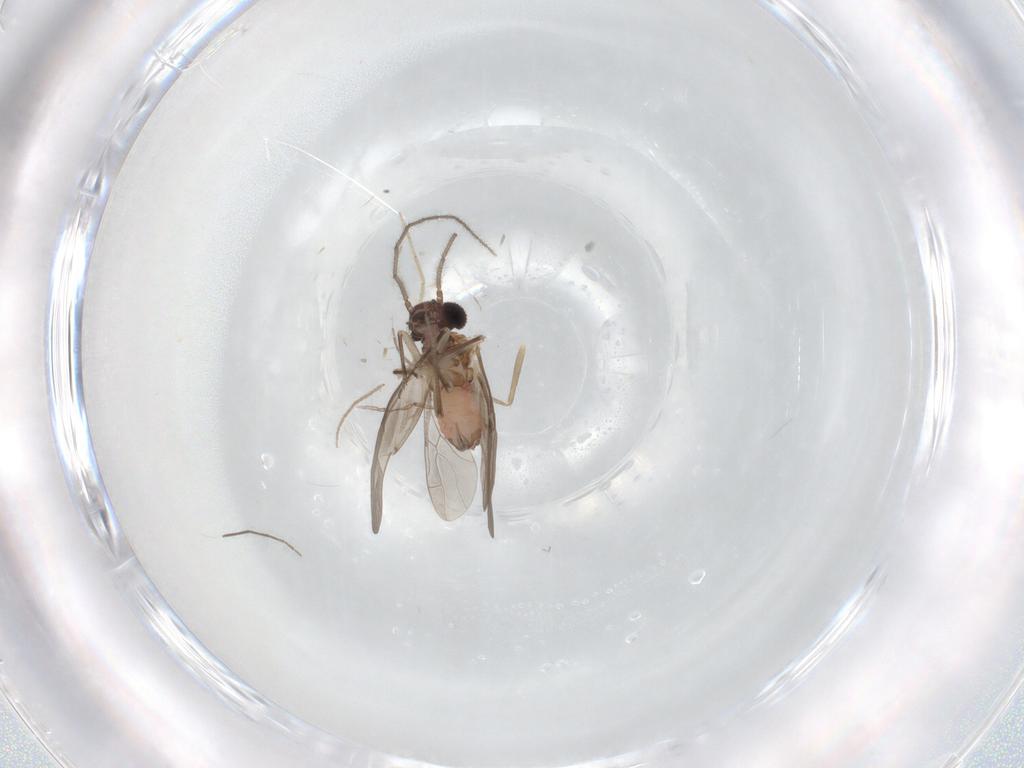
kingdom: Animalia
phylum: Arthropoda
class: Insecta
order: Psocodea
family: Lachesillidae
